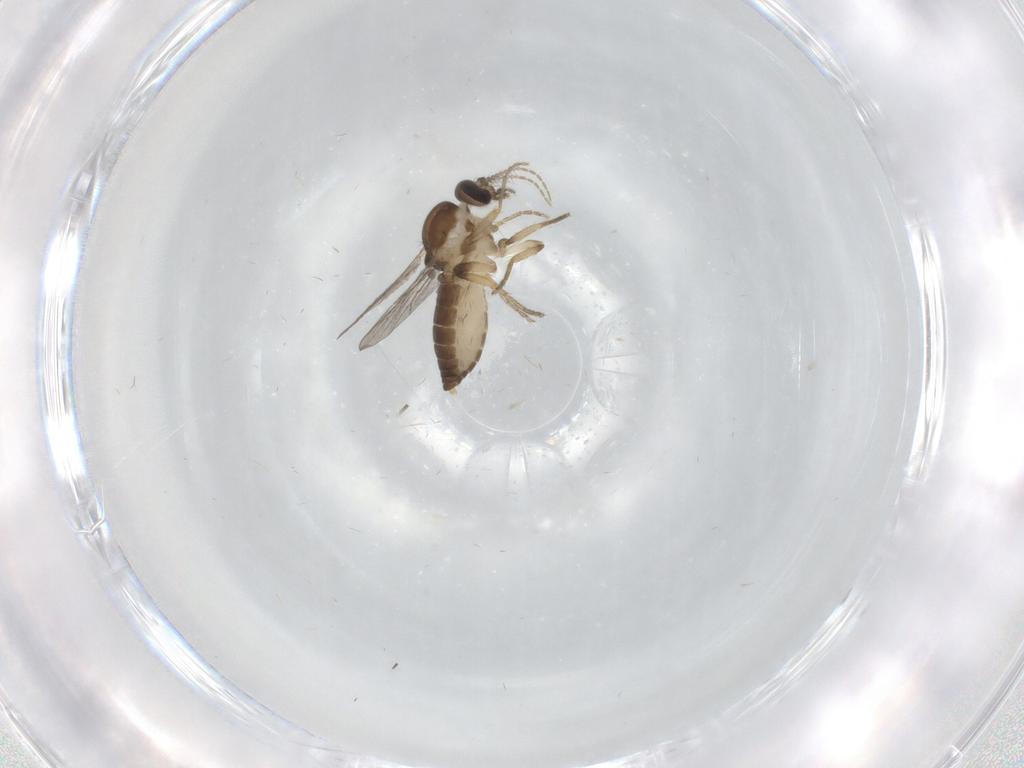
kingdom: Animalia
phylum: Arthropoda
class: Insecta
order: Diptera
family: Ceratopogonidae
